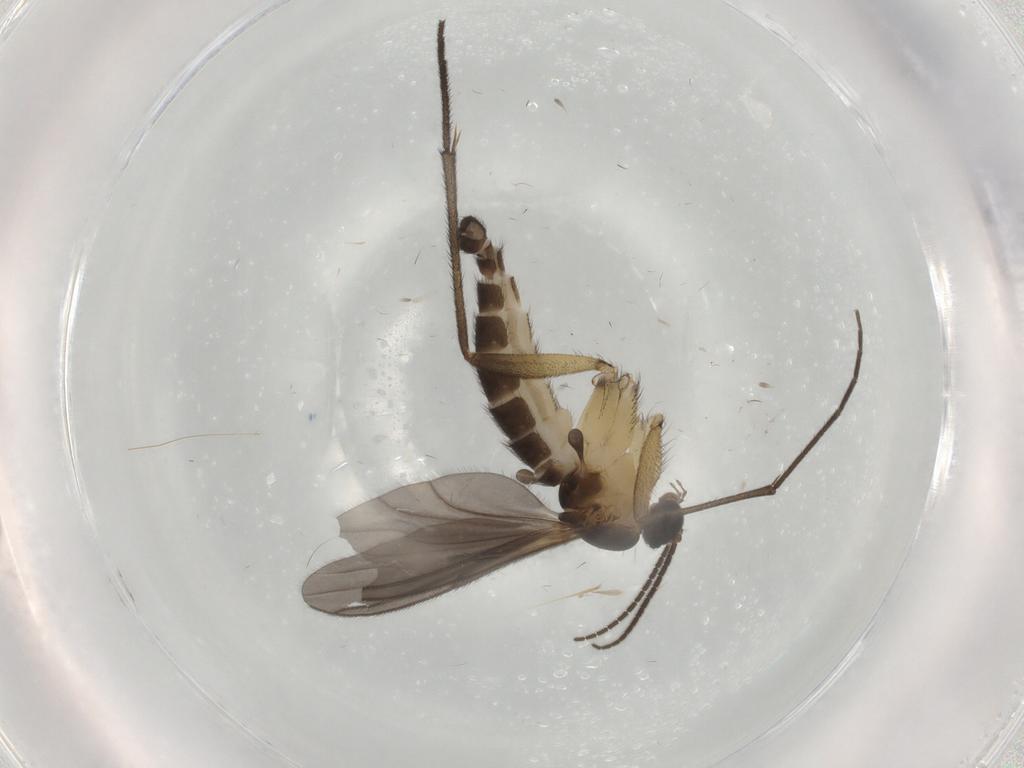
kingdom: Animalia
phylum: Arthropoda
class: Insecta
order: Diptera
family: Sciaridae
